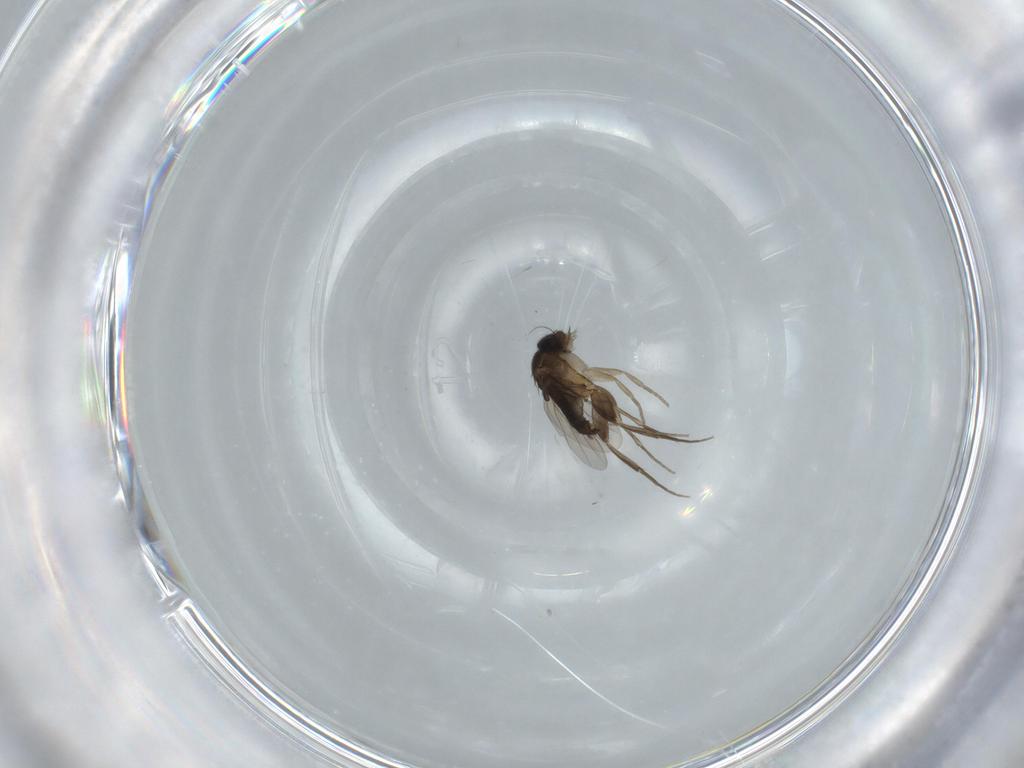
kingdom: Animalia
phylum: Arthropoda
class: Insecta
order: Diptera
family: Phoridae
